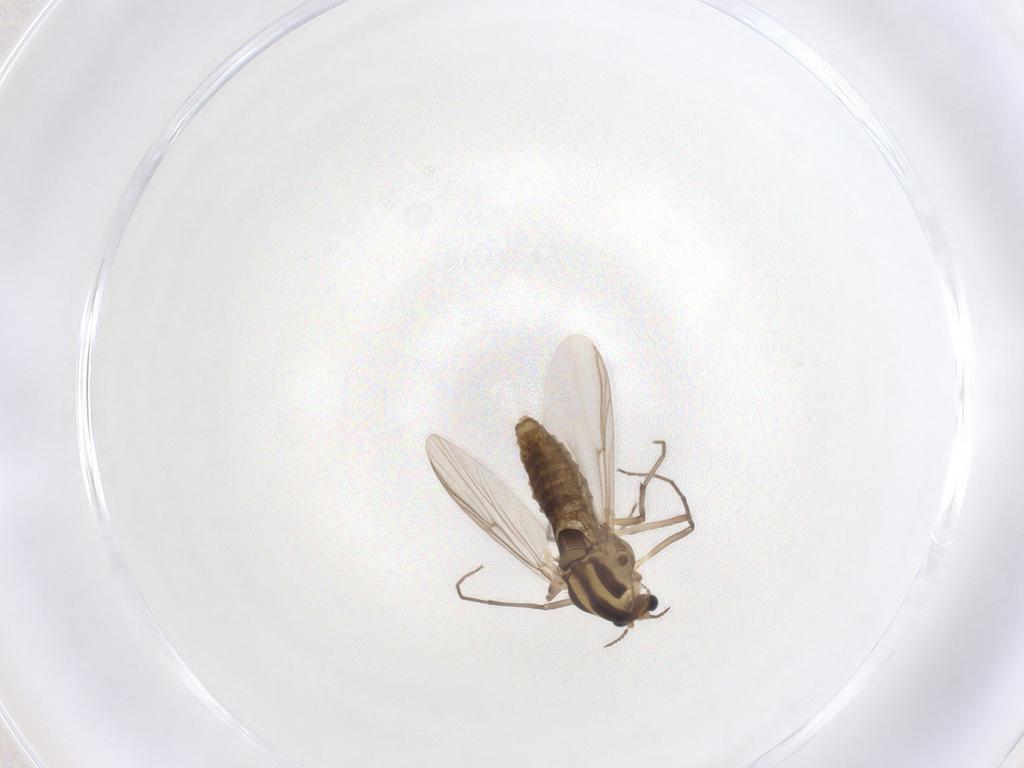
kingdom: Animalia
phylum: Arthropoda
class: Insecta
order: Diptera
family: Chironomidae
